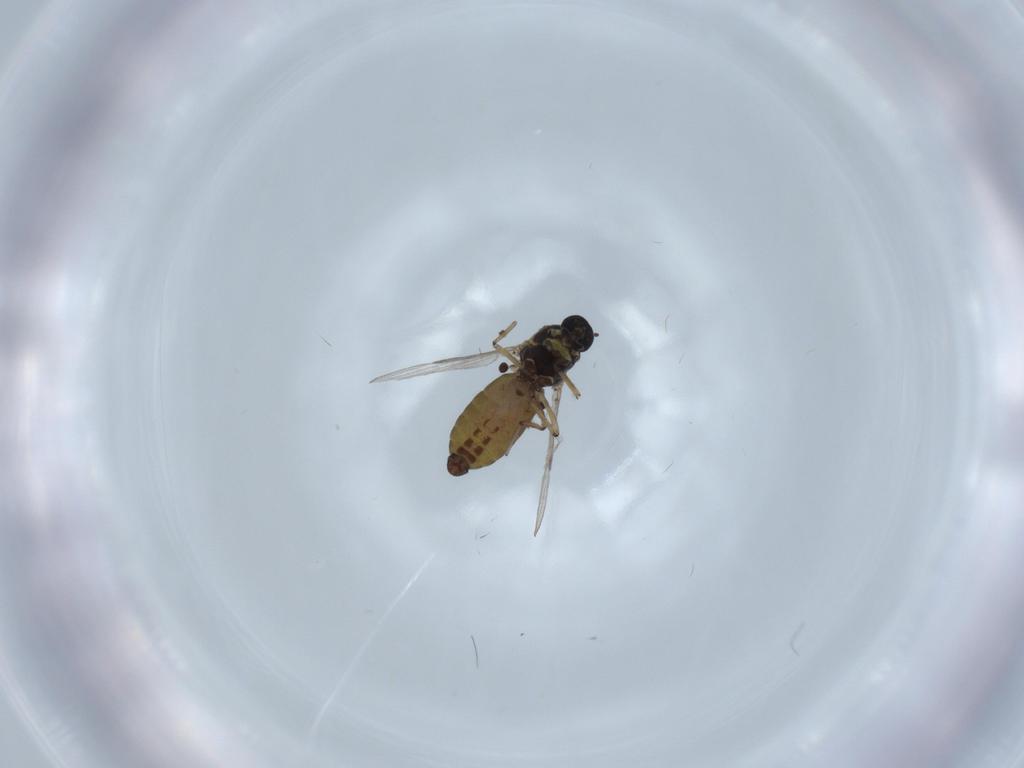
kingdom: Animalia
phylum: Arthropoda
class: Insecta
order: Diptera
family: Ceratopogonidae
